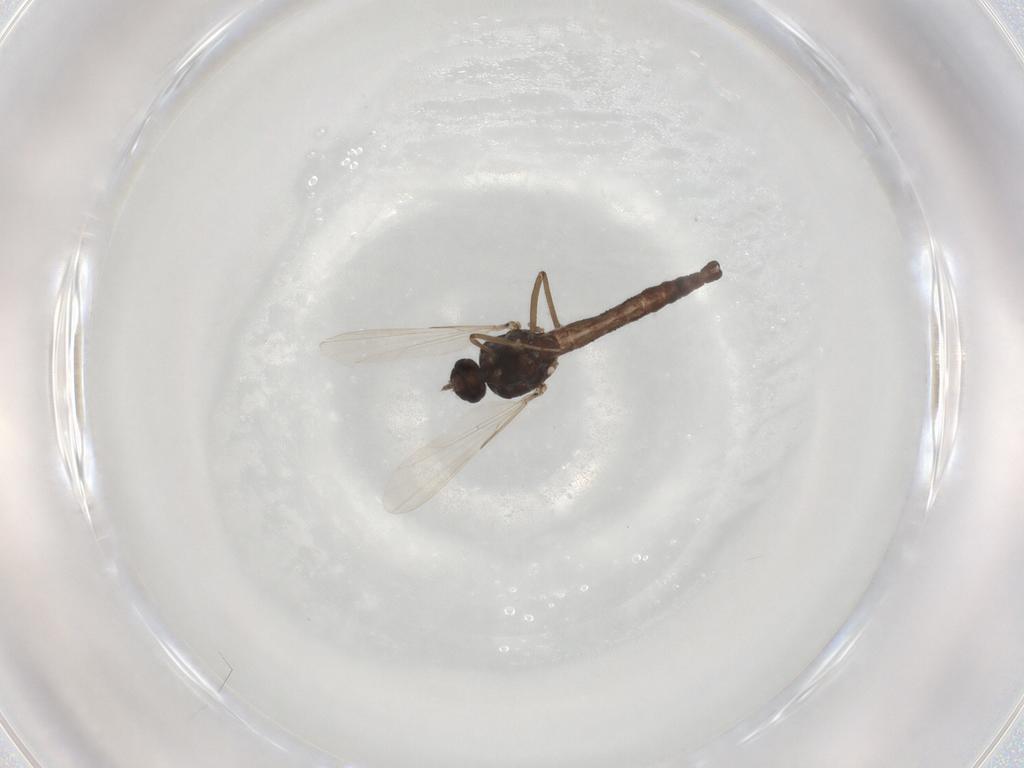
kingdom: Animalia
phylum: Arthropoda
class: Insecta
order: Diptera
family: Ceratopogonidae
